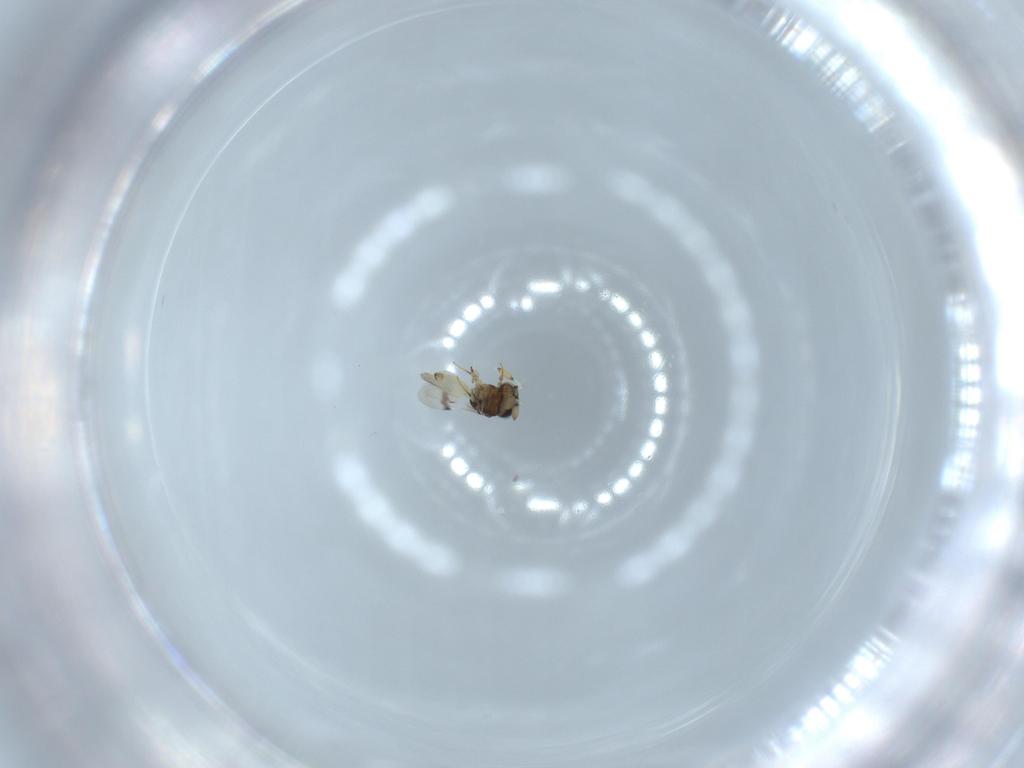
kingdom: Animalia
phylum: Arthropoda
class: Insecta
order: Hymenoptera
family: Scelionidae
